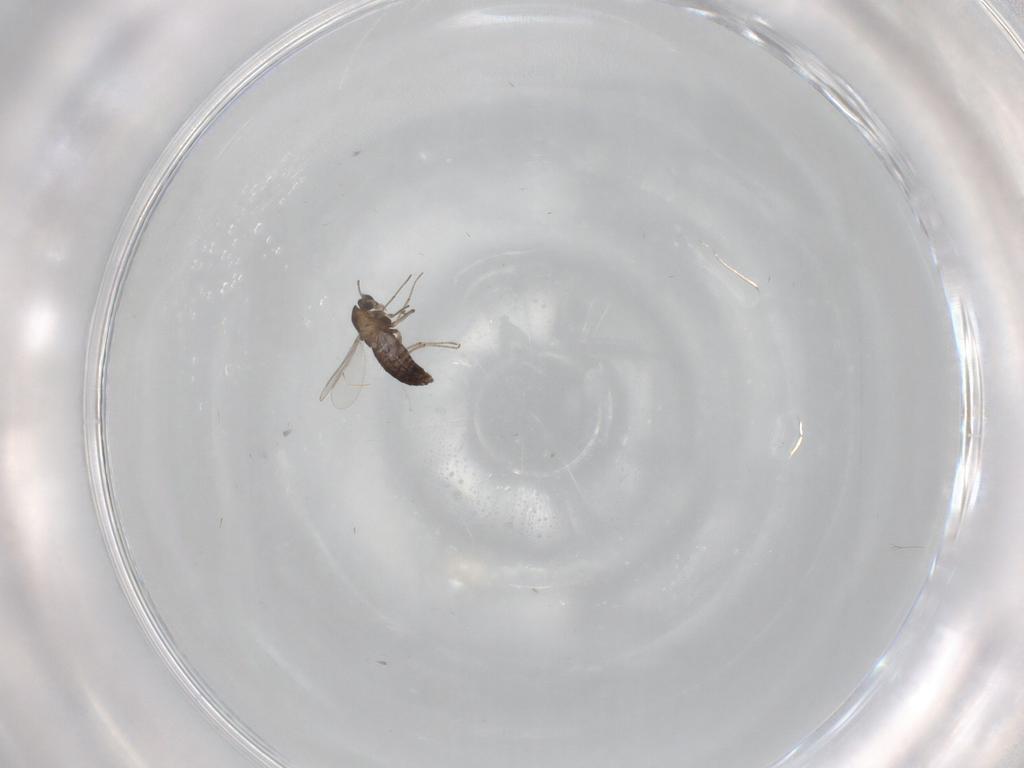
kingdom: Animalia
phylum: Arthropoda
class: Insecta
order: Diptera
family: Chironomidae
